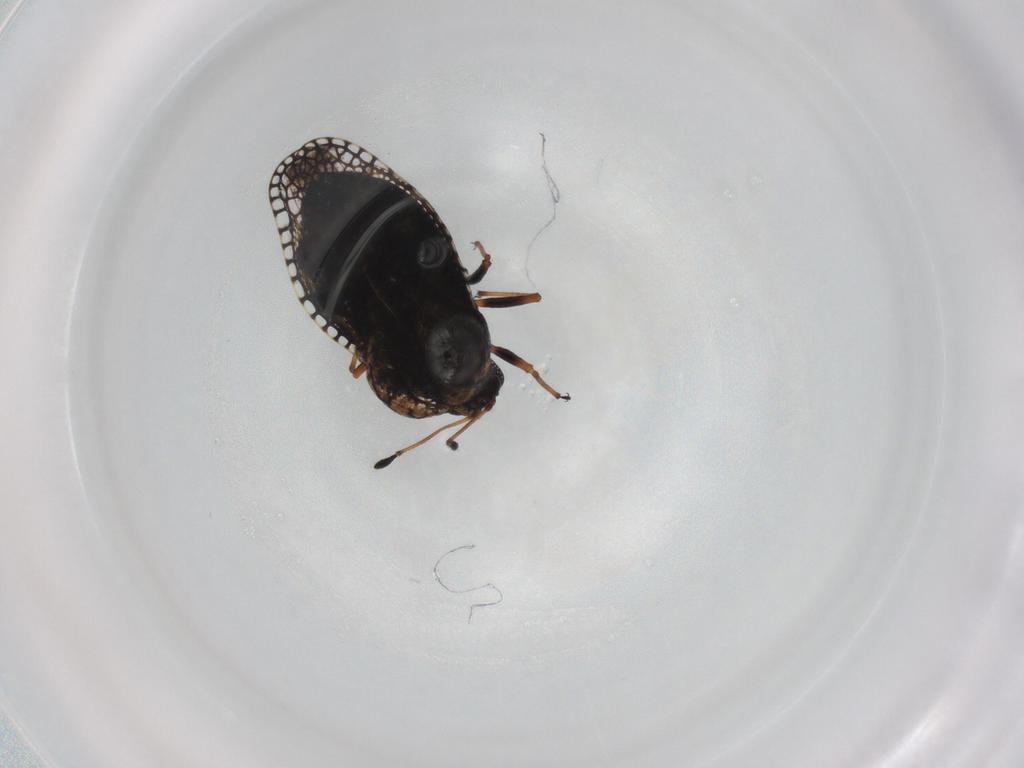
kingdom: Animalia
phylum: Arthropoda
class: Insecta
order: Hemiptera
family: Tingidae
